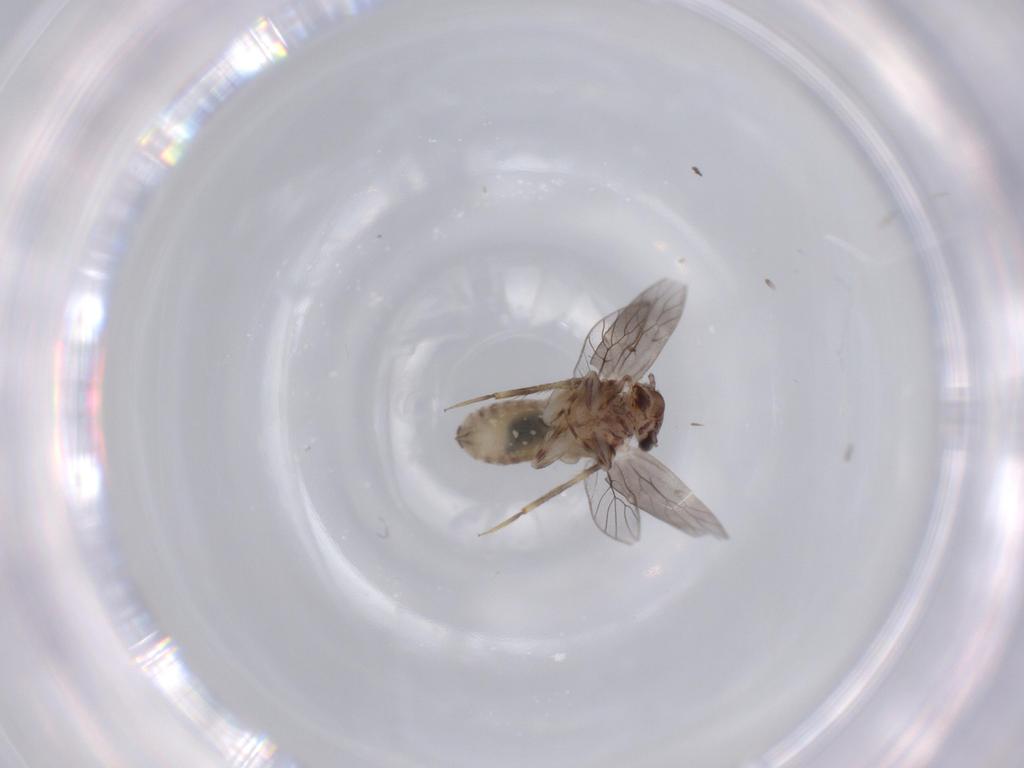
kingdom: Animalia
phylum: Arthropoda
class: Insecta
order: Psocodea
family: Lepidopsocidae
